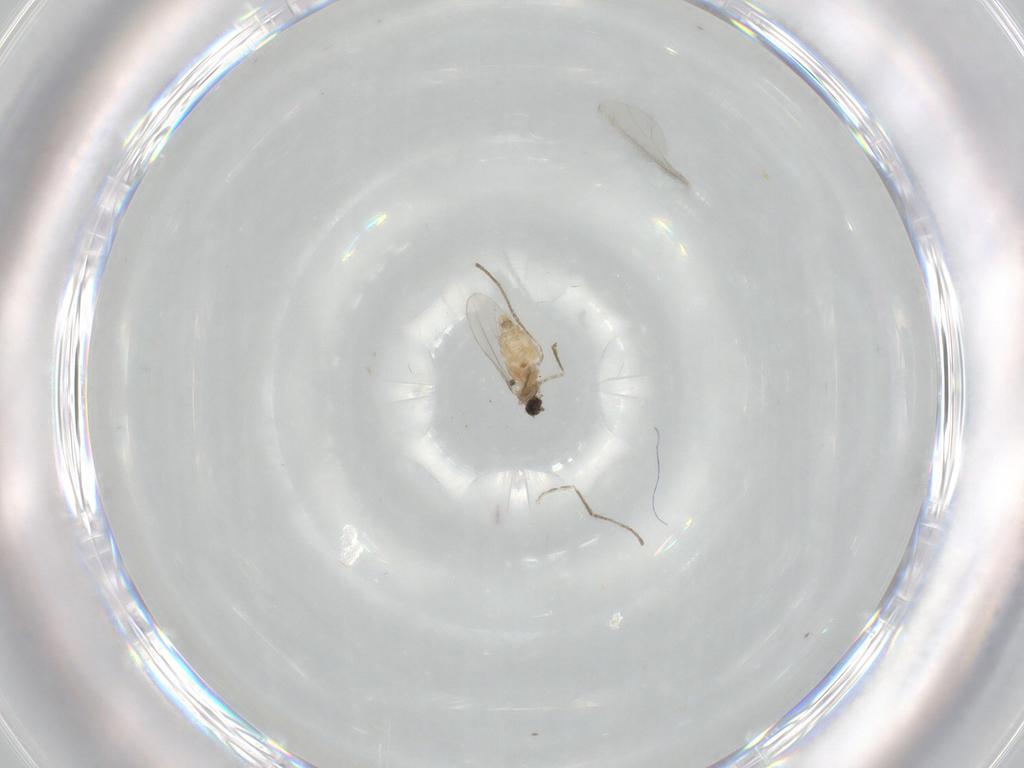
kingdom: Animalia
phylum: Arthropoda
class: Insecta
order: Diptera
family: Cecidomyiidae
